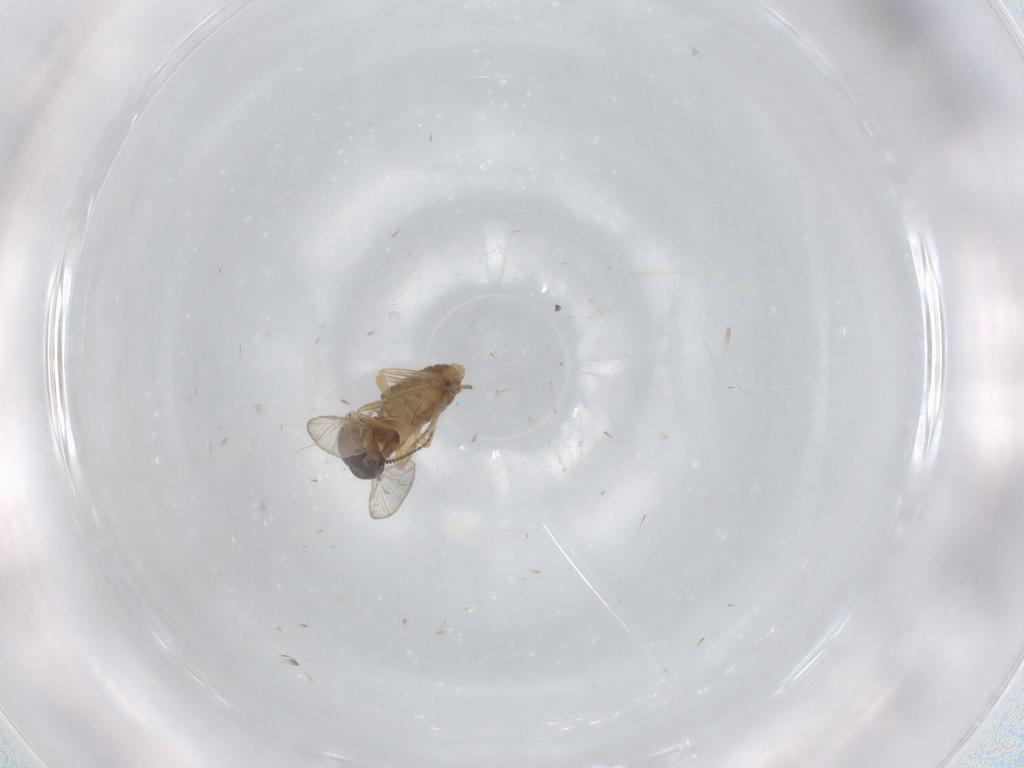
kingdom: Animalia
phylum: Arthropoda
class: Insecta
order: Diptera
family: Ceratopogonidae
